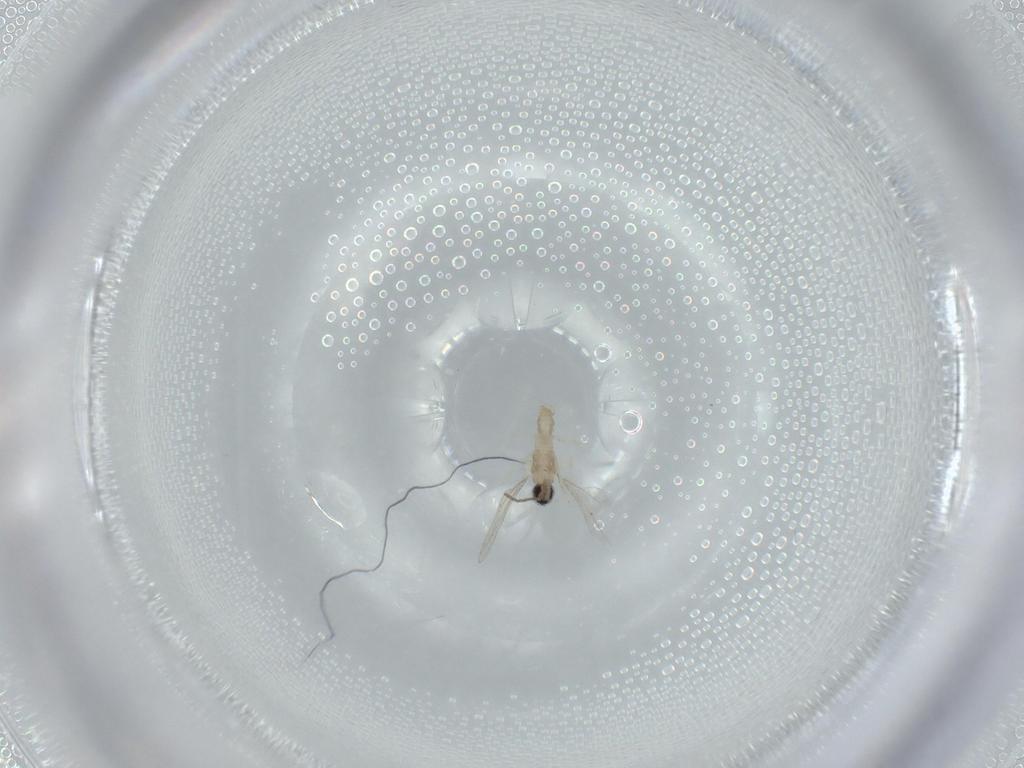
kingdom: Animalia
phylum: Arthropoda
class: Insecta
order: Diptera
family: Cecidomyiidae
